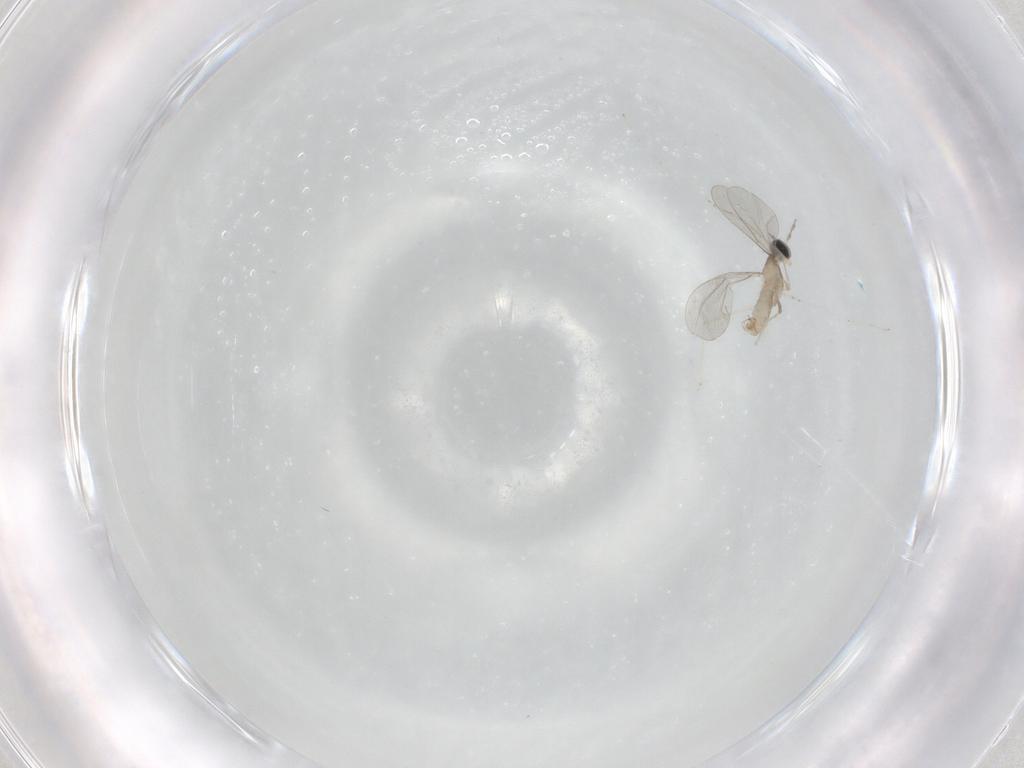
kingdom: Animalia
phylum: Arthropoda
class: Insecta
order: Diptera
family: Cecidomyiidae
